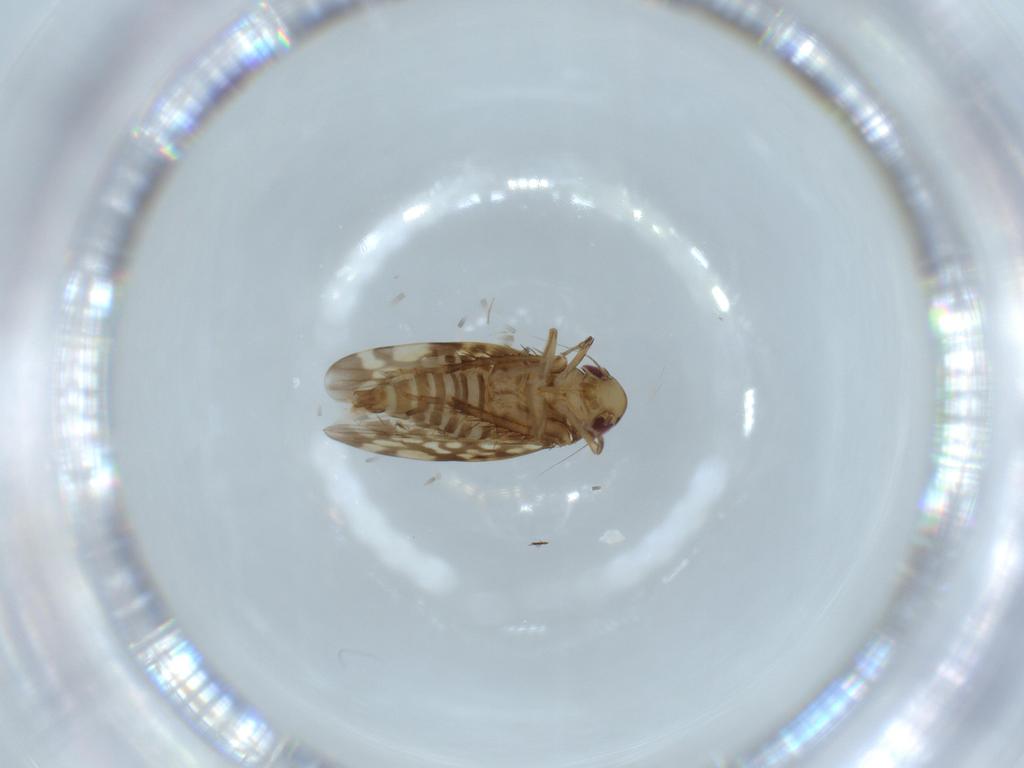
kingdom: Animalia
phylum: Arthropoda
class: Insecta
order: Hemiptera
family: Cicadellidae
